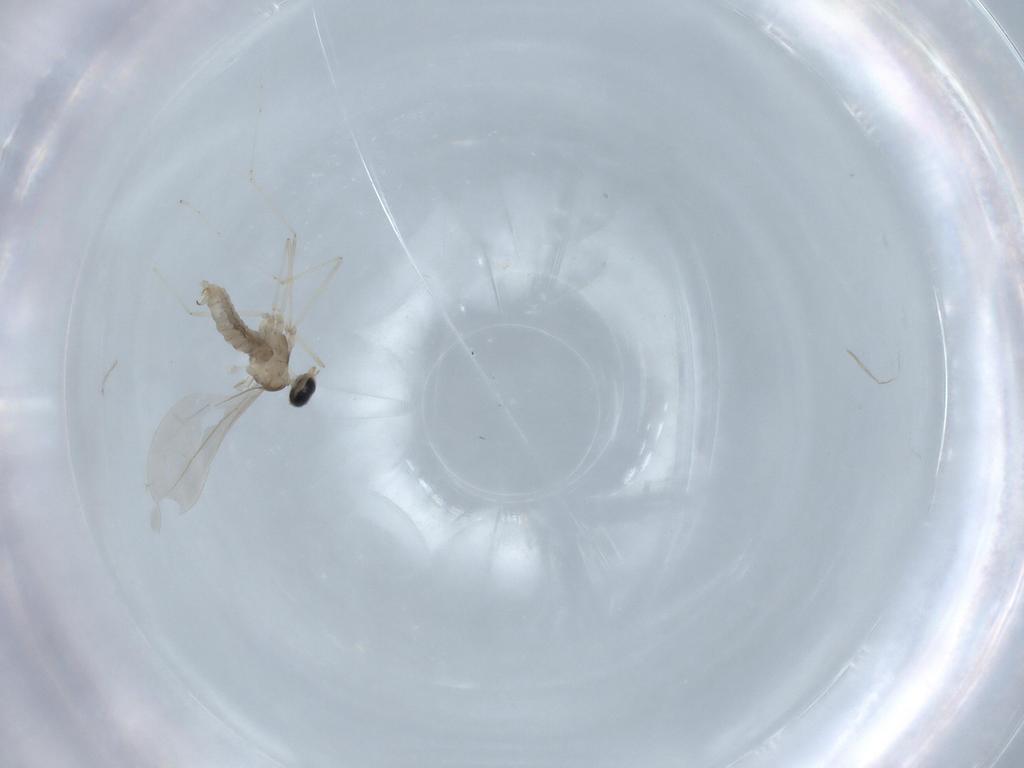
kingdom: Animalia
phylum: Arthropoda
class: Insecta
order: Diptera
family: Cecidomyiidae
